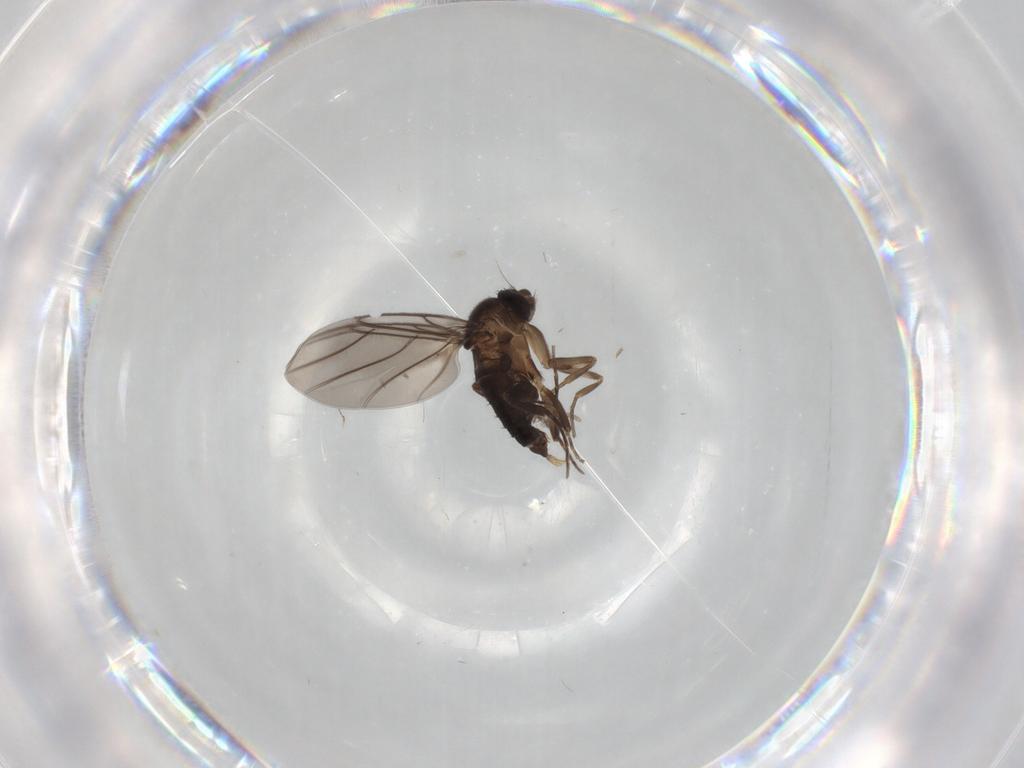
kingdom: Animalia
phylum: Arthropoda
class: Insecta
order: Diptera
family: Psychodidae
